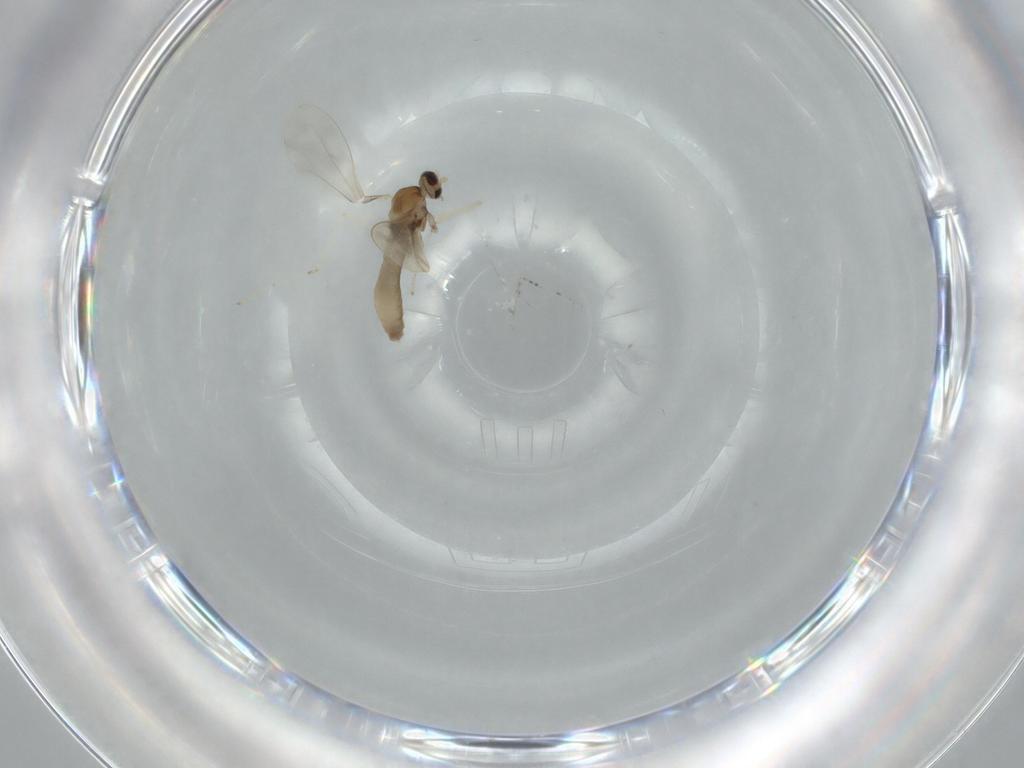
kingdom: Animalia
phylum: Arthropoda
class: Insecta
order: Diptera
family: Cecidomyiidae
